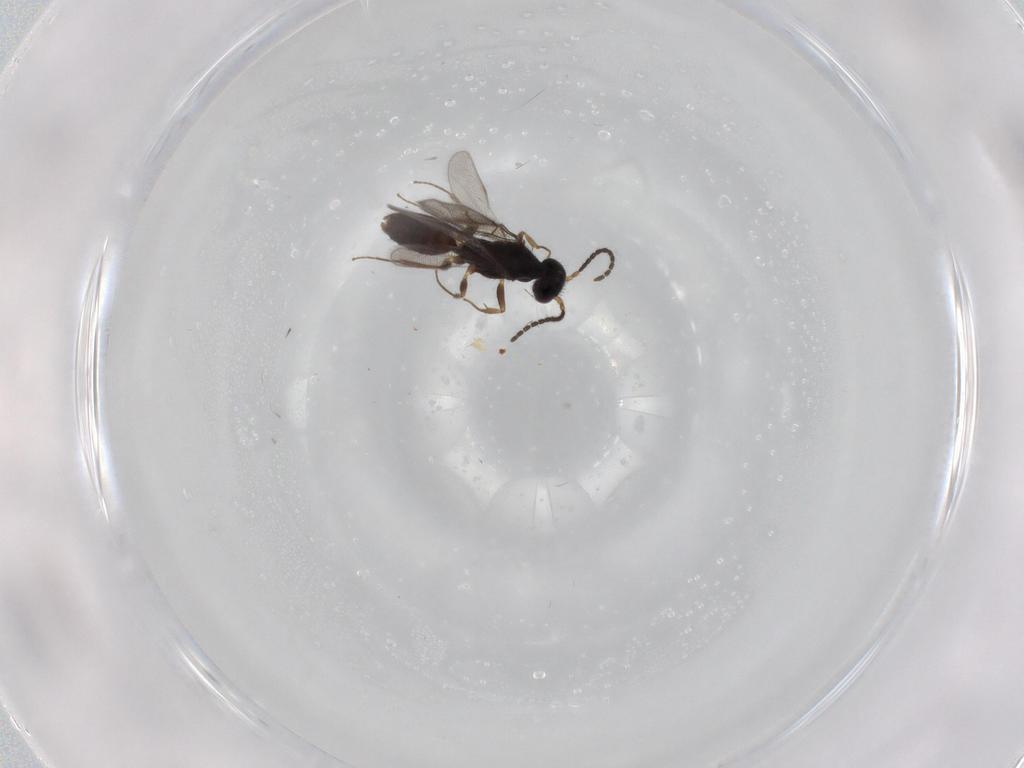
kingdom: Animalia
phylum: Arthropoda
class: Insecta
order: Hymenoptera
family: Bethylidae
